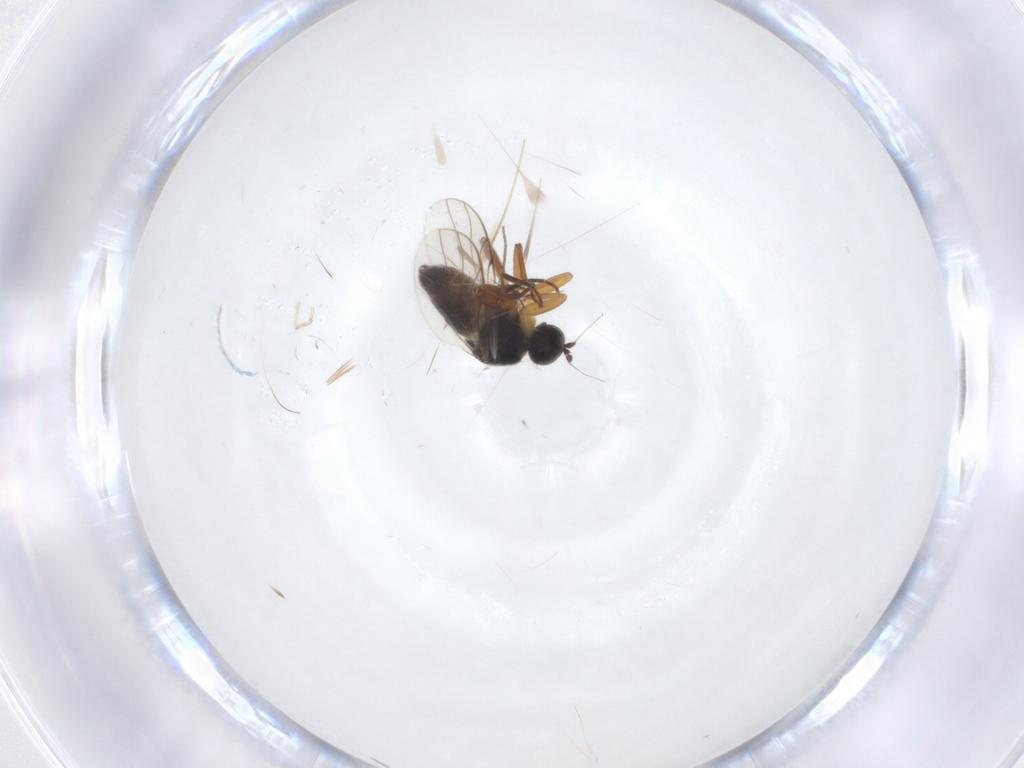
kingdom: Animalia
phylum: Arthropoda
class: Insecta
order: Diptera
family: Hybotidae
